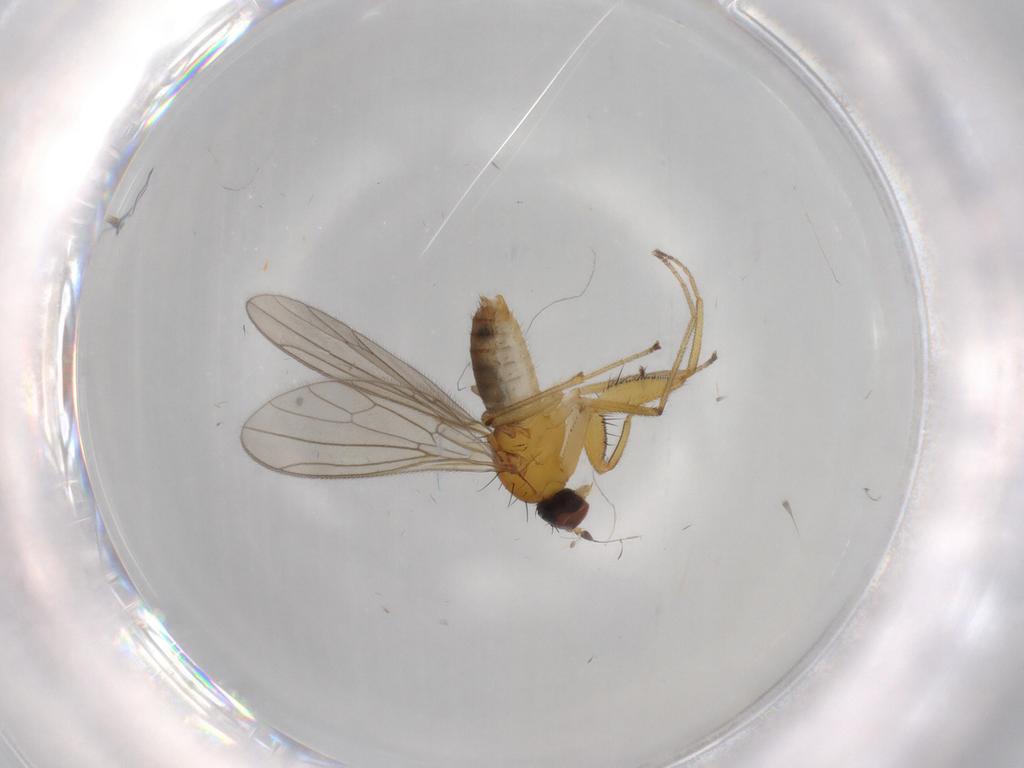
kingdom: Animalia
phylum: Arthropoda
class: Insecta
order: Diptera
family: Empididae
